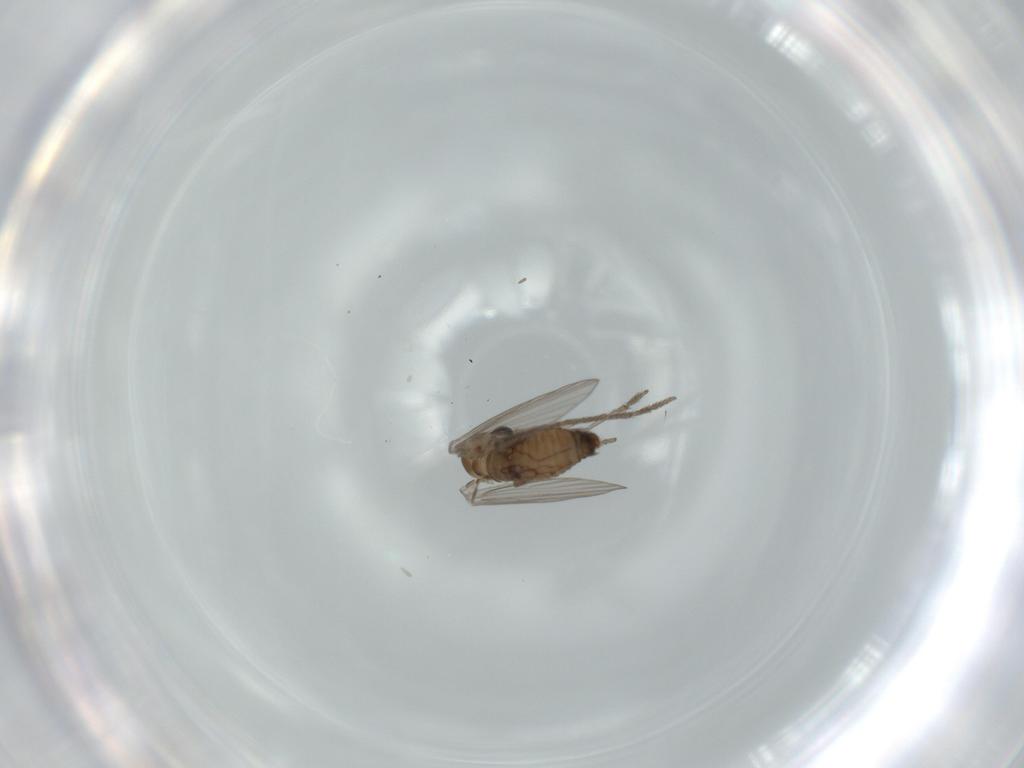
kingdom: Animalia
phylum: Arthropoda
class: Insecta
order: Diptera
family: Psychodidae
